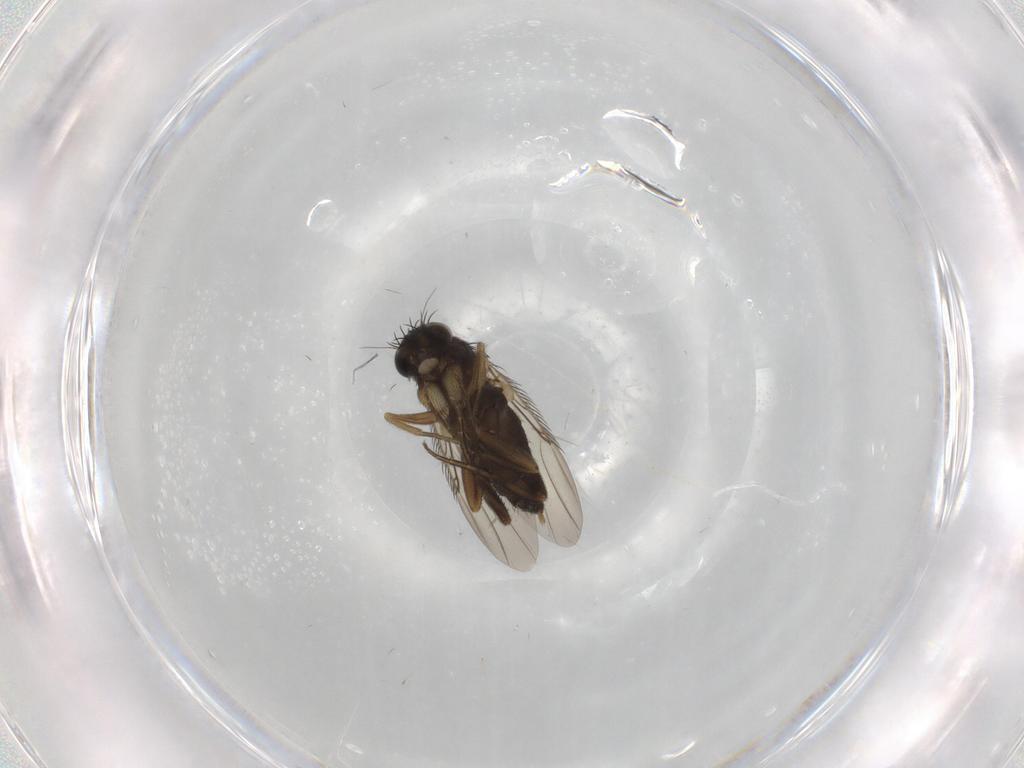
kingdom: Animalia
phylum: Arthropoda
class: Insecta
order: Diptera
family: Phoridae
